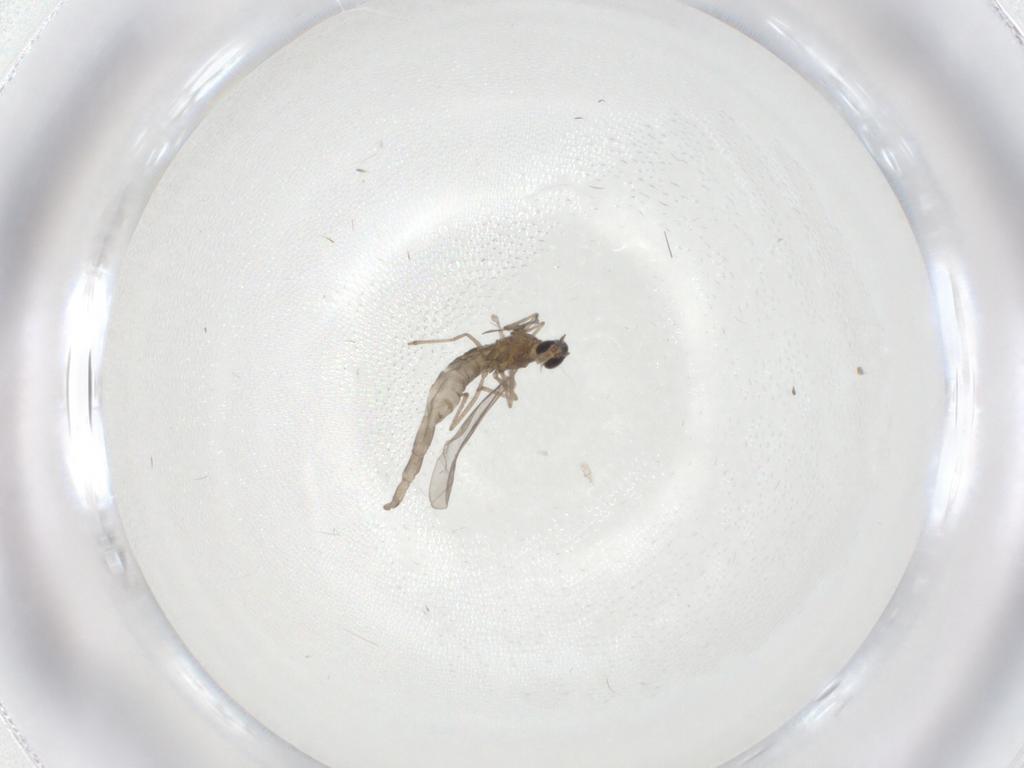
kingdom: Animalia
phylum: Arthropoda
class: Insecta
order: Diptera
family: Cecidomyiidae
